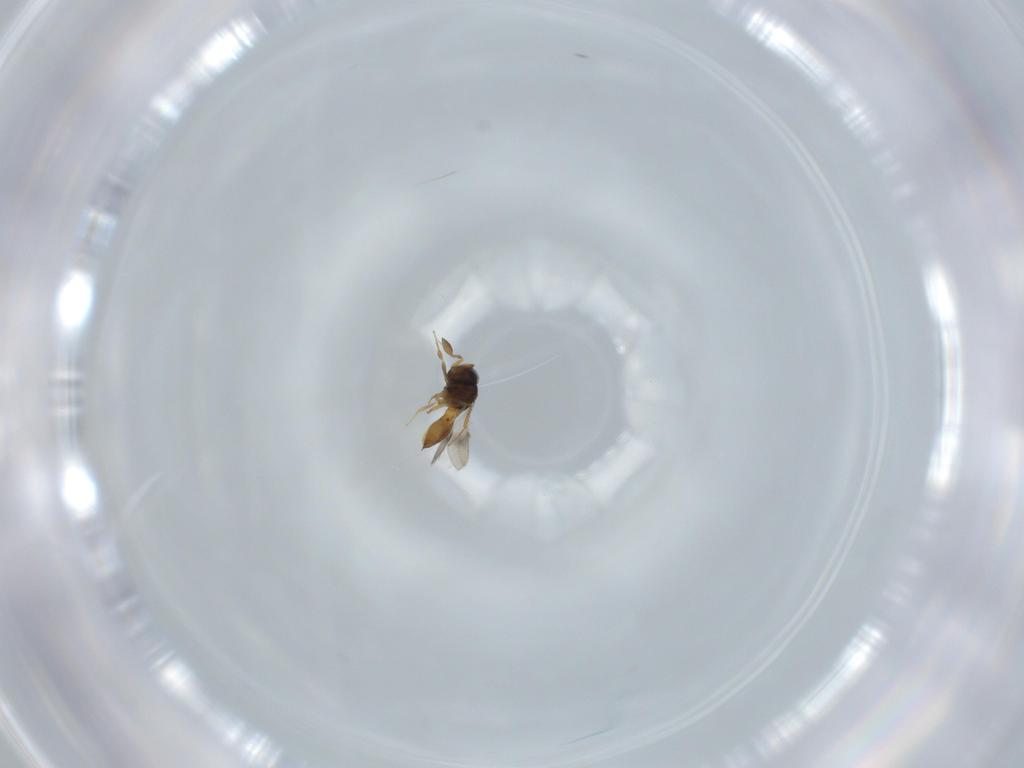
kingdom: Animalia
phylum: Arthropoda
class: Insecta
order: Hymenoptera
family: Scelionidae
